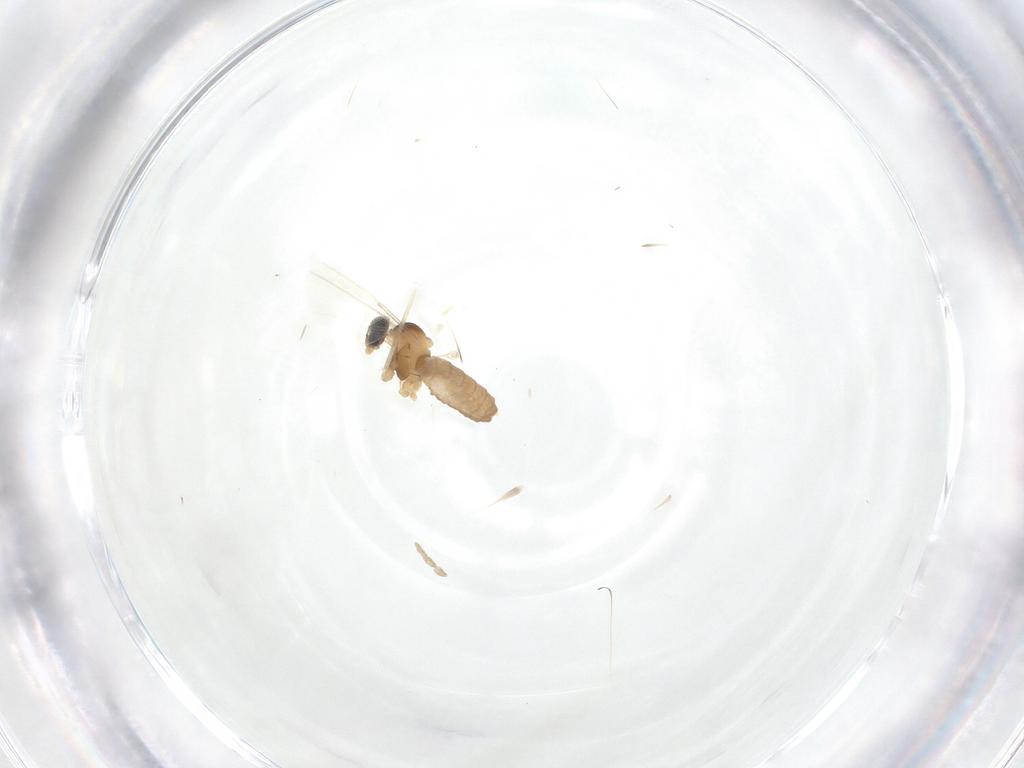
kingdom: Animalia
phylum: Arthropoda
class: Insecta
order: Diptera
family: Cecidomyiidae
